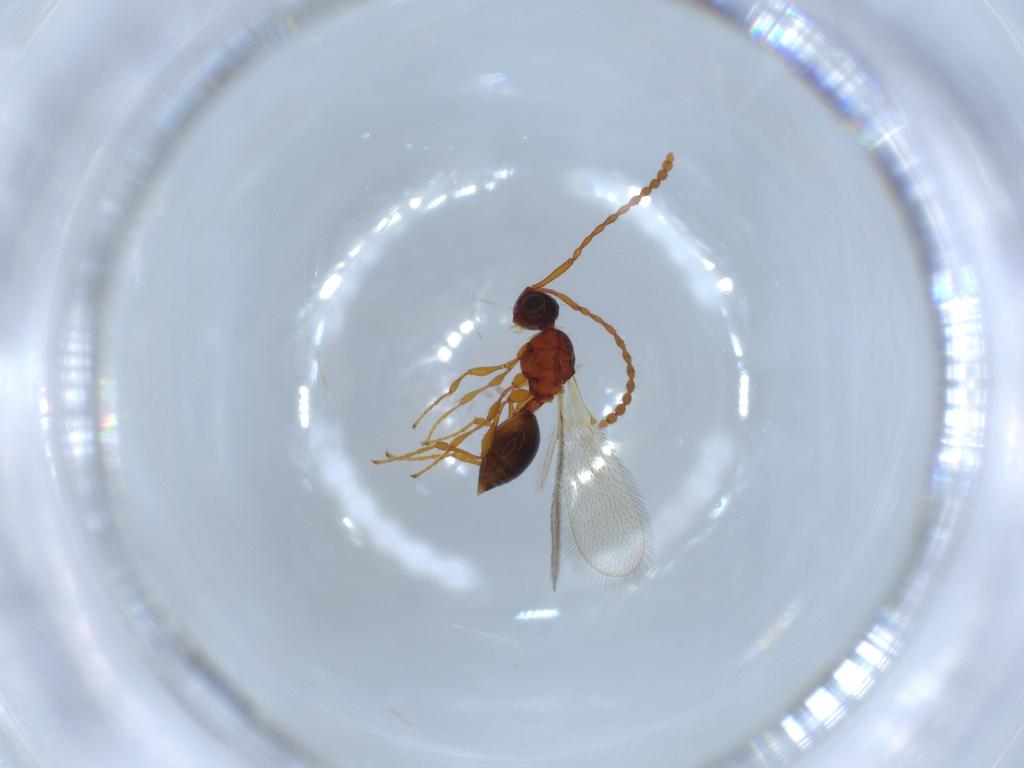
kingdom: Animalia
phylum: Arthropoda
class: Insecta
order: Hymenoptera
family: Diapriidae
